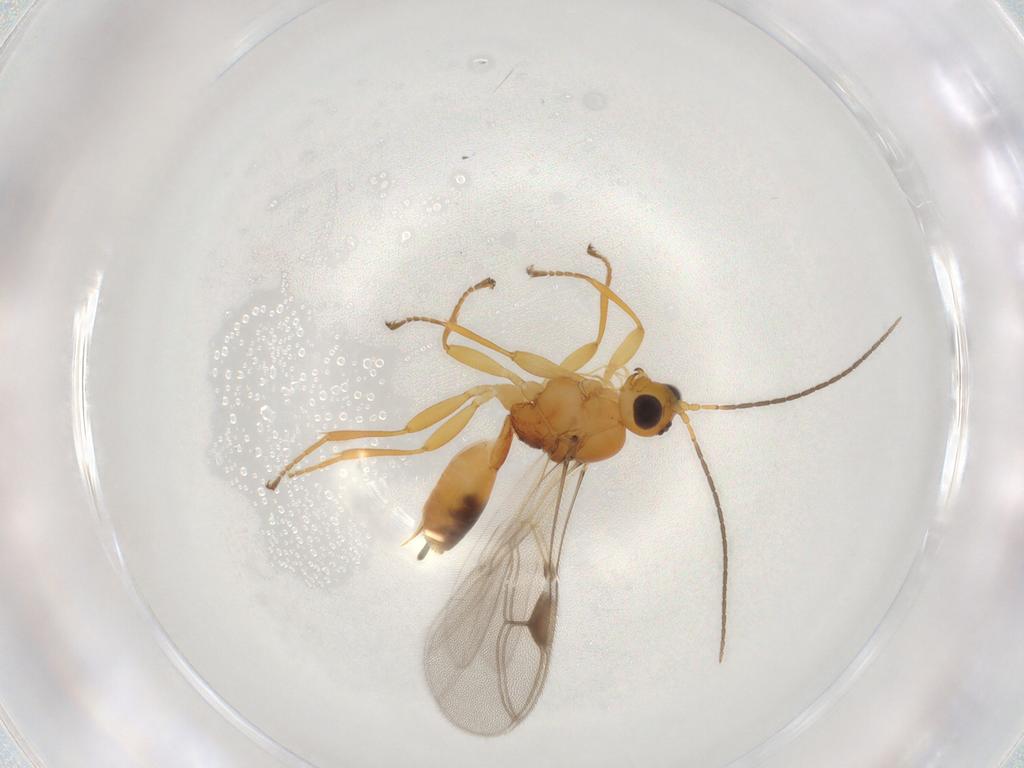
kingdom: Animalia
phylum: Arthropoda
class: Insecta
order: Hymenoptera
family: Braconidae
